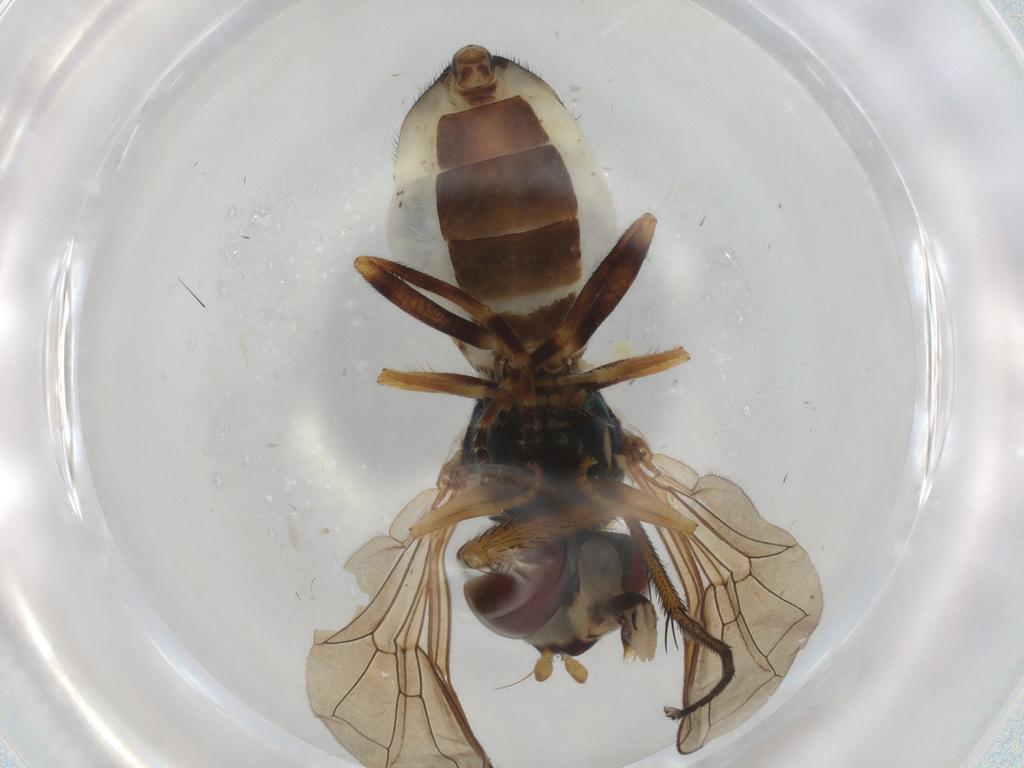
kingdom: Animalia
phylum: Arthropoda
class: Insecta
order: Diptera
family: Syrphidae
